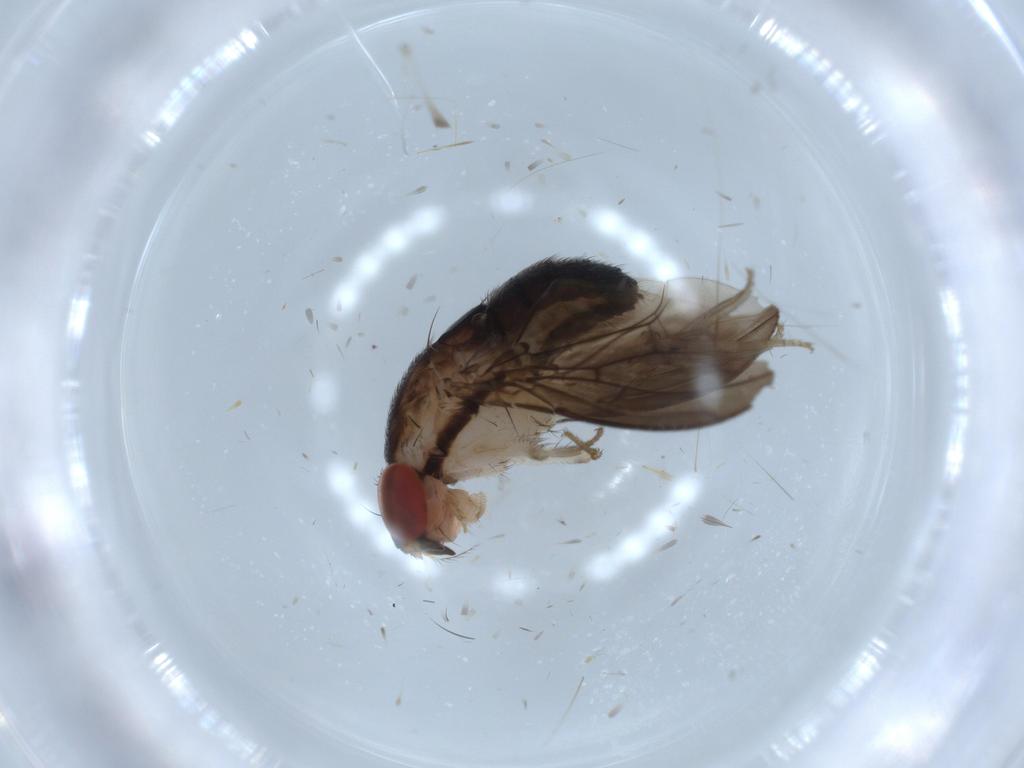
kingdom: Animalia
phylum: Arthropoda
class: Insecta
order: Diptera
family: Drosophilidae
